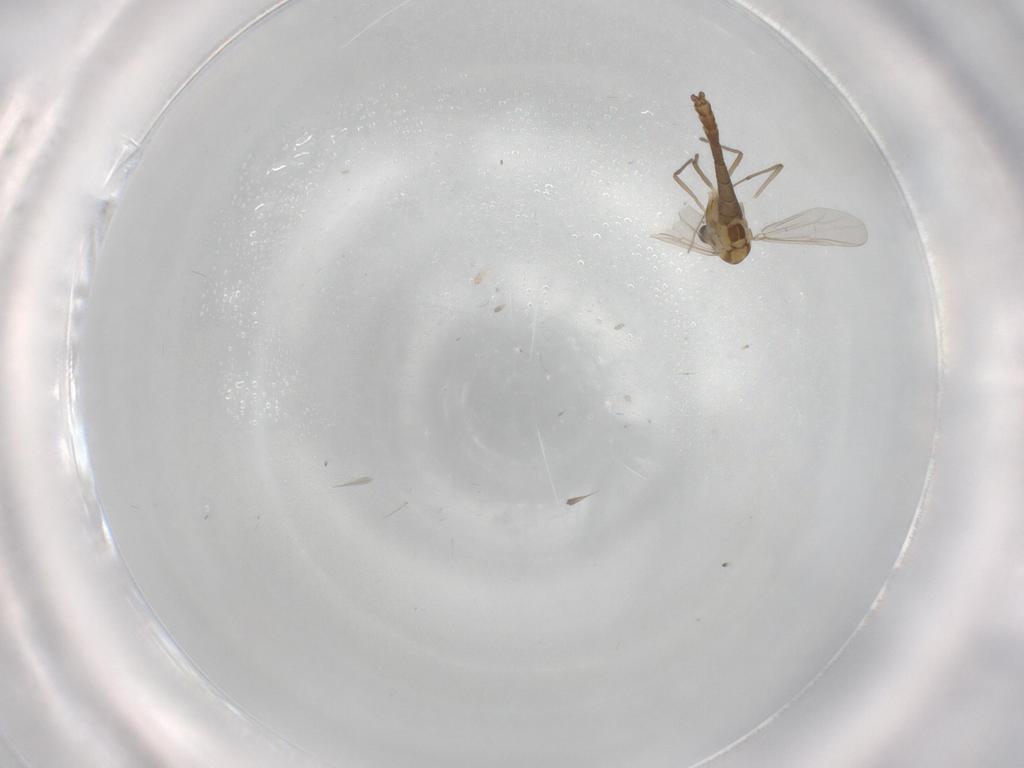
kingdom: Animalia
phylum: Arthropoda
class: Insecta
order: Diptera
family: Chironomidae
